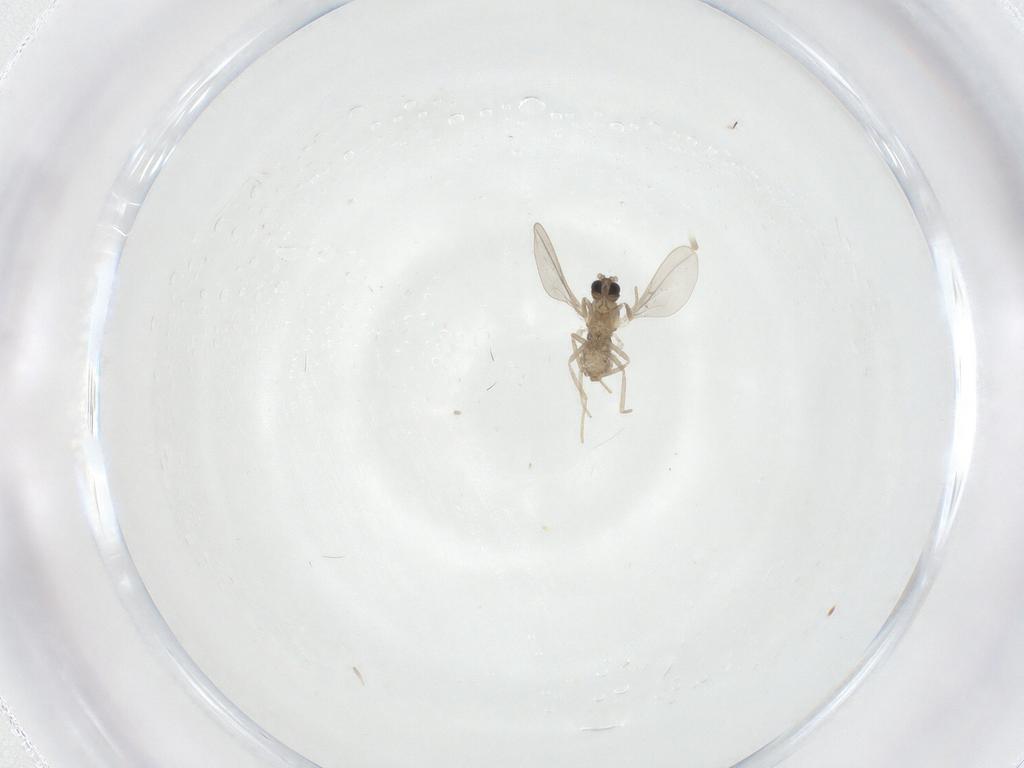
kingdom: Animalia
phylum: Arthropoda
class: Insecta
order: Diptera
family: Cecidomyiidae
